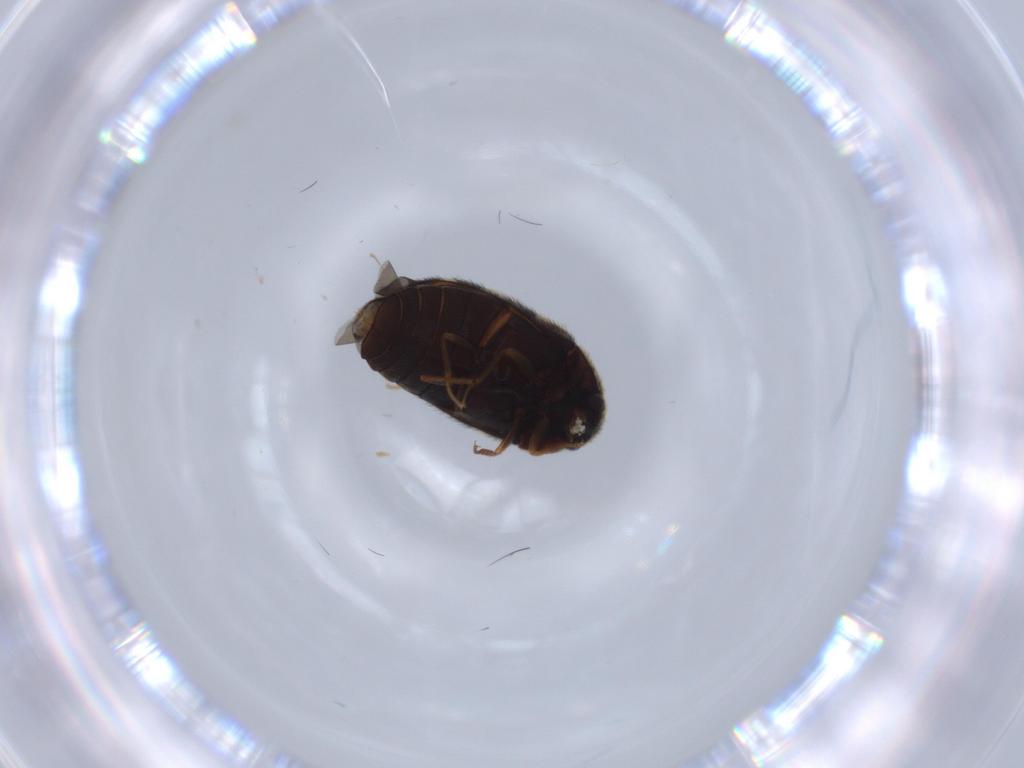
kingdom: Animalia
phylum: Arthropoda
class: Insecta
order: Coleoptera
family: Dermestidae
